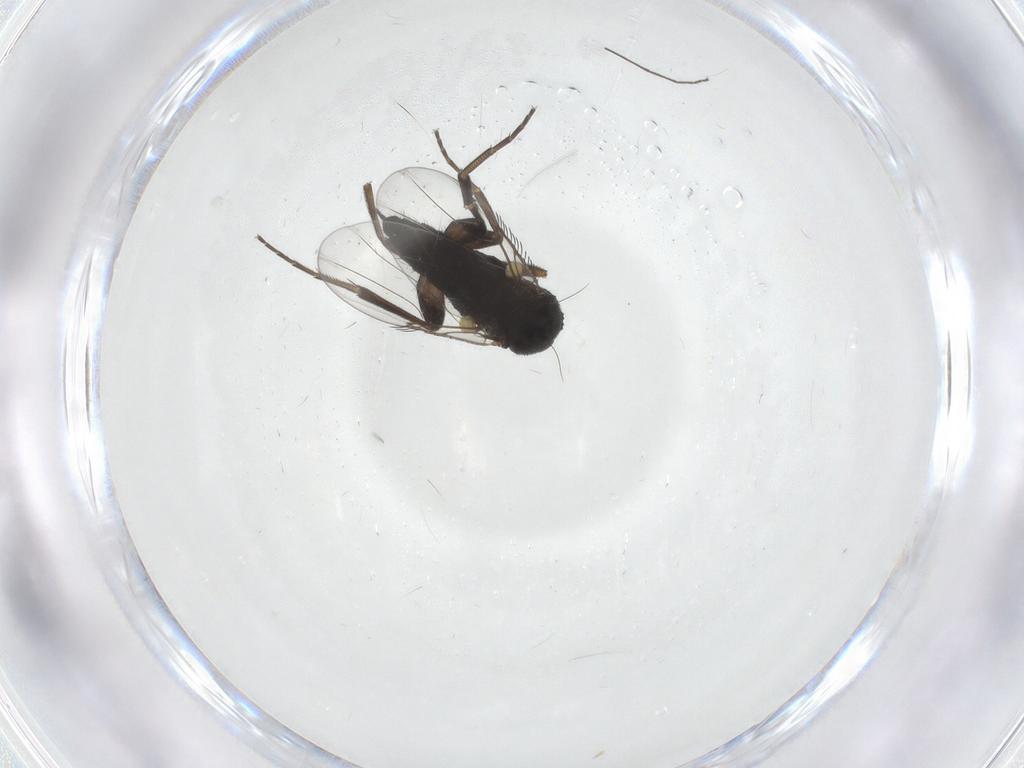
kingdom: Animalia
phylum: Arthropoda
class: Insecta
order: Diptera
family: Phoridae
